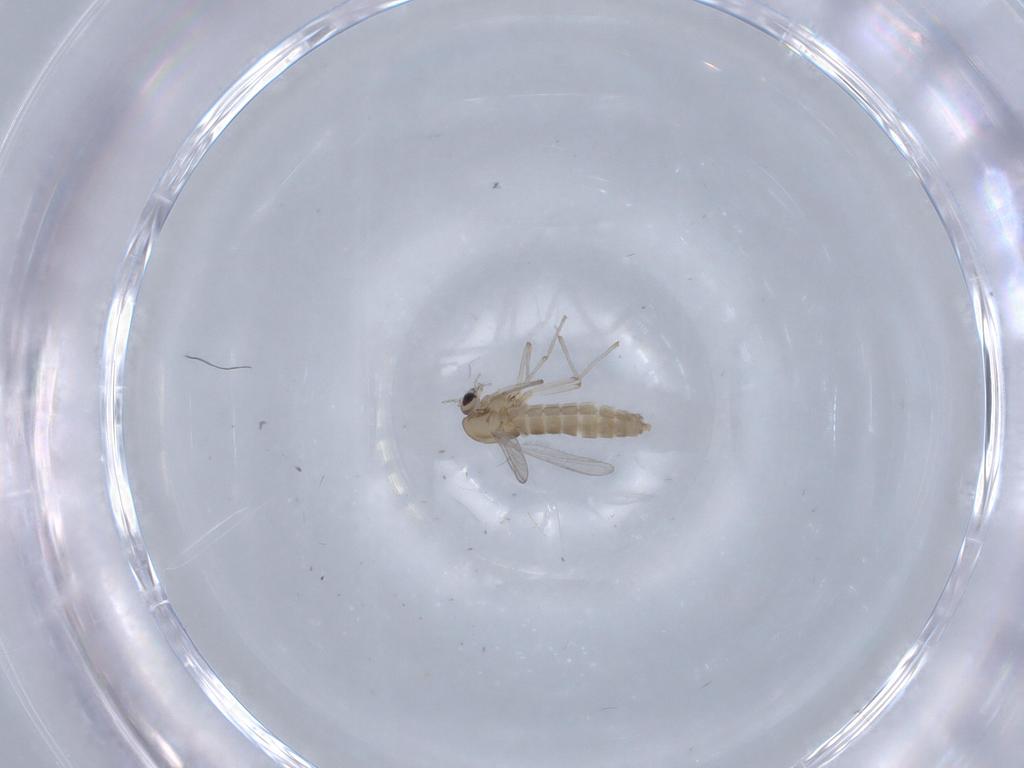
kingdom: Animalia
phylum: Arthropoda
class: Insecta
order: Diptera
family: Chironomidae
